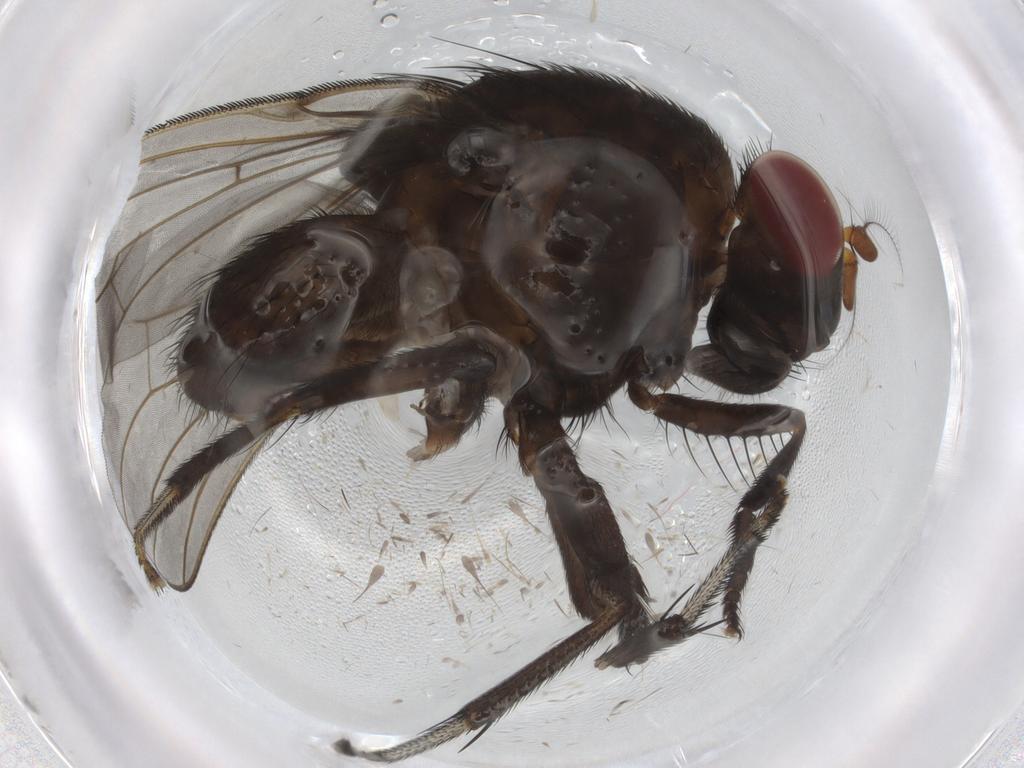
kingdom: Animalia
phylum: Arthropoda
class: Insecta
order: Diptera
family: Cecidomyiidae
